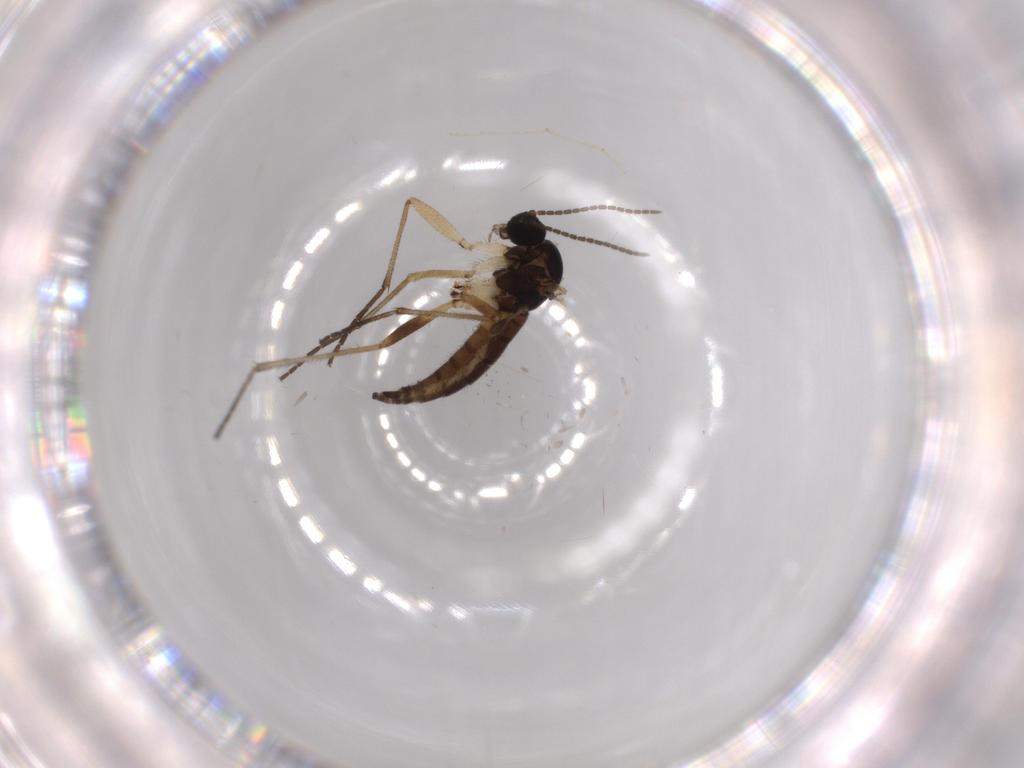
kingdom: Animalia
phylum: Arthropoda
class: Insecta
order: Diptera
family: Sciaridae
